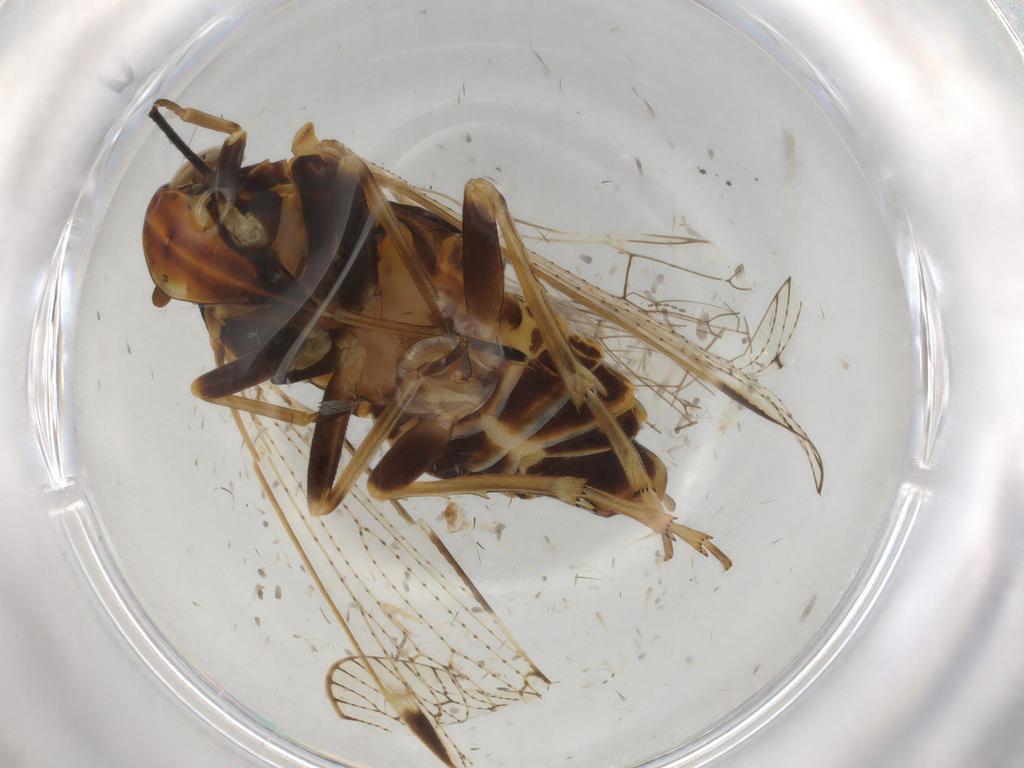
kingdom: Animalia
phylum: Arthropoda
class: Insecta
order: Hemiptera
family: Cixiidae
